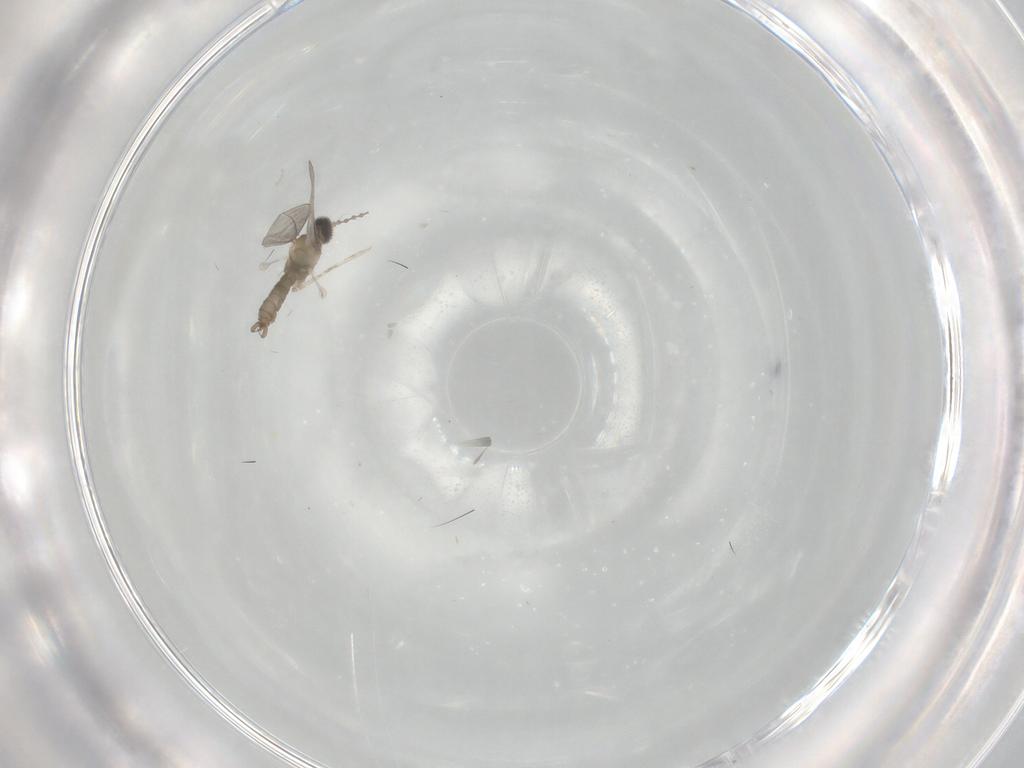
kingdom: Animalia
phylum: Arthropoda
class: Insecta
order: Diptera
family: Cecidomyiidae
